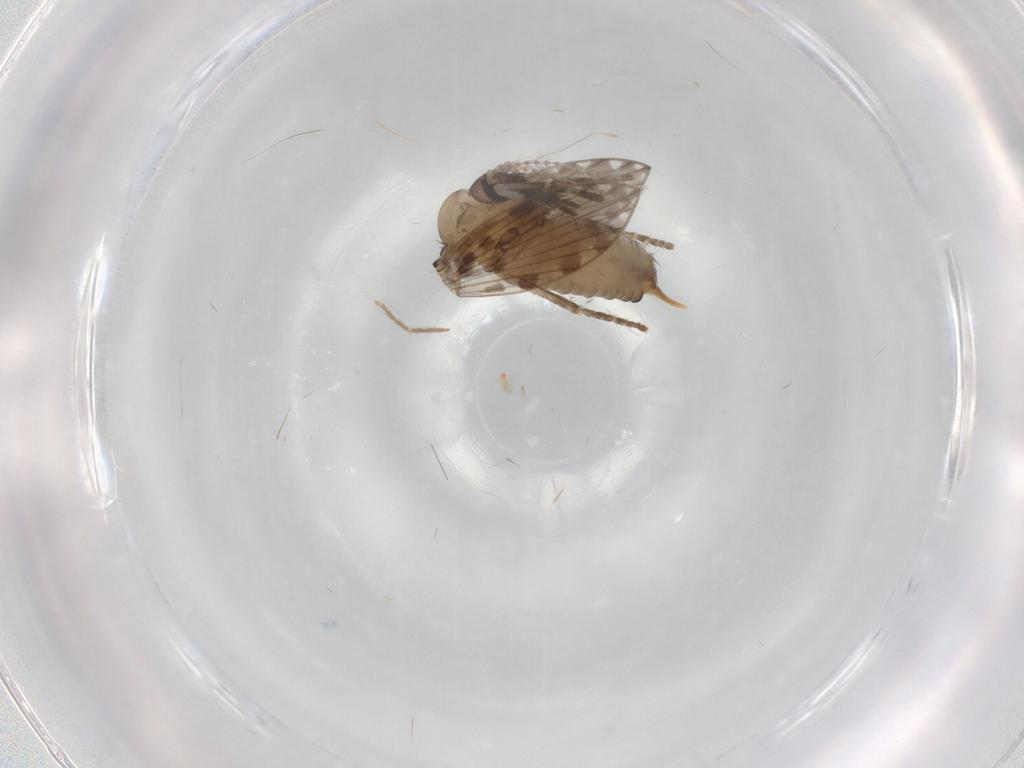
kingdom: Animalia
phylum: Arthropoda
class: Insecta
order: Diptera
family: Psychodidae
